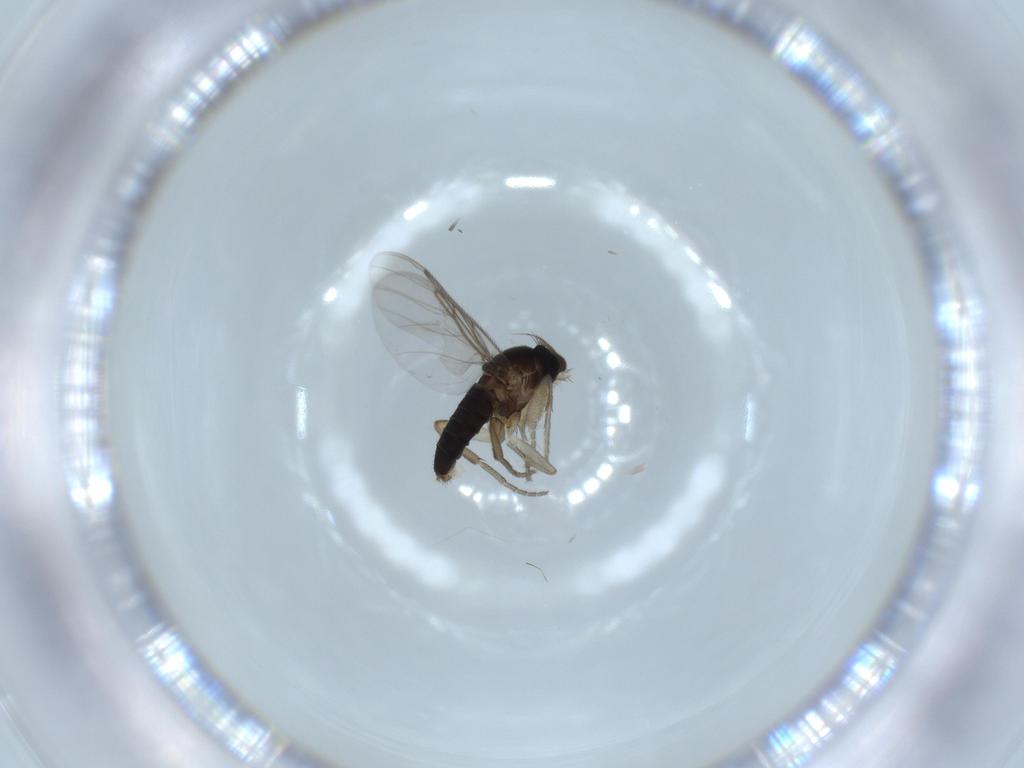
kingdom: Animalia
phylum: Arthropoda
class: Insecta
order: Diptera
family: Phoridae
